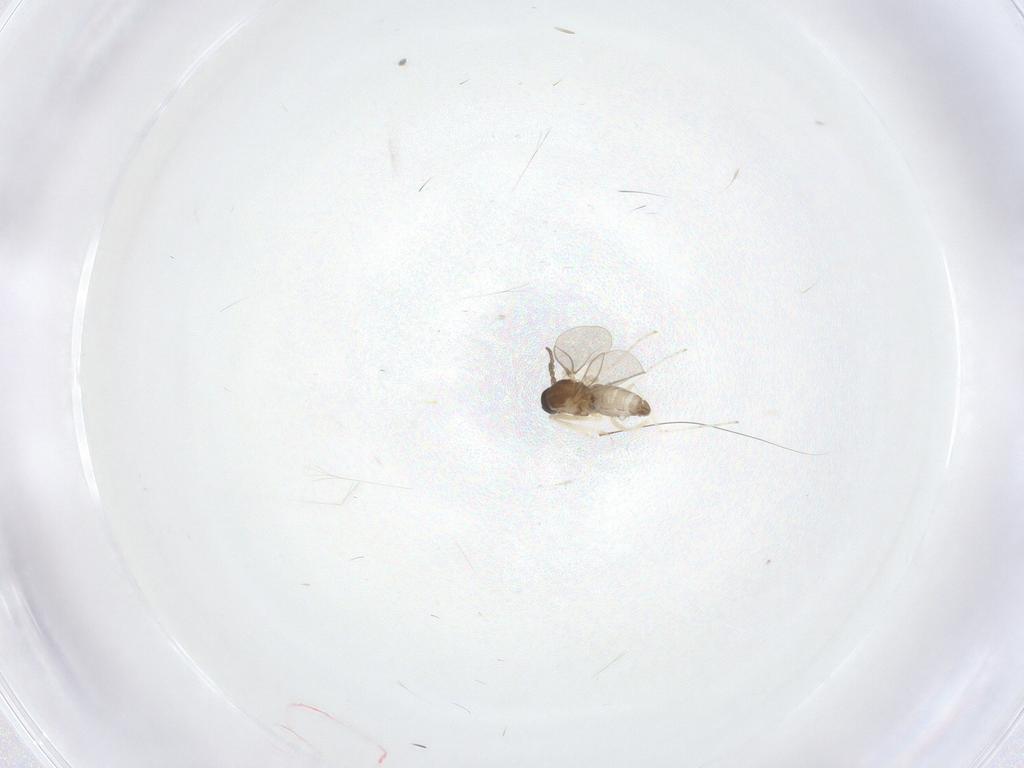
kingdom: Animalia
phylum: Arthropoda
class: Insecta
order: Diptera
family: Cecidomyiidae
